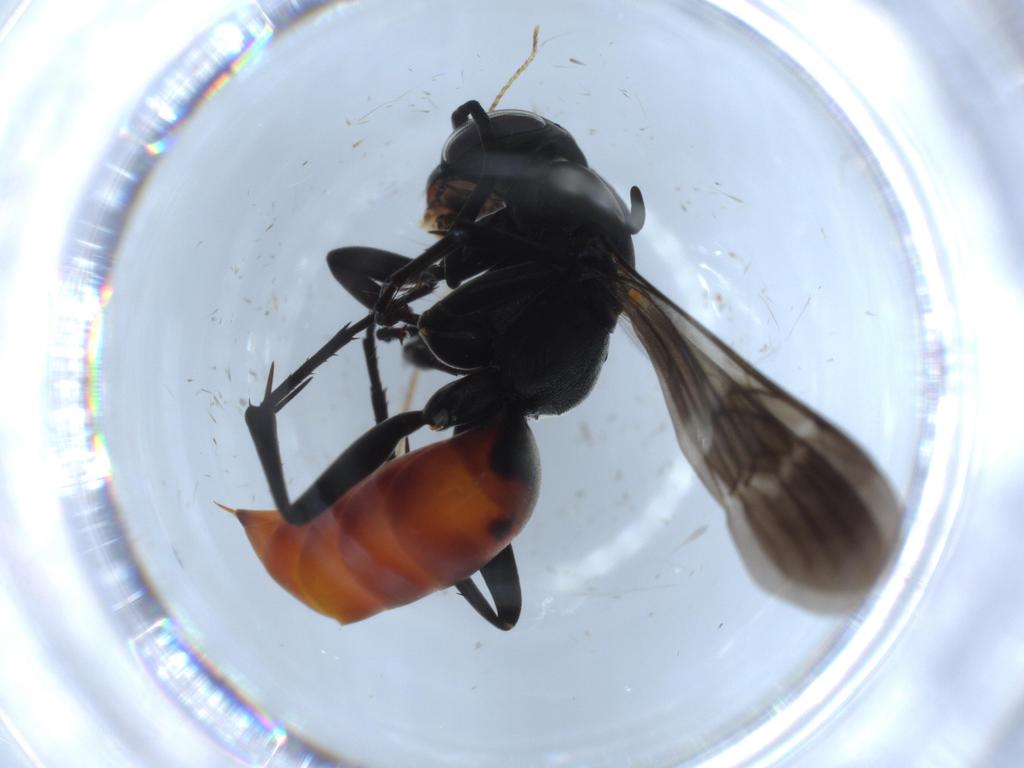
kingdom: Animalia
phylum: Arthropoda
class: Insecta
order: Hymenoptera
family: Pompilidae
